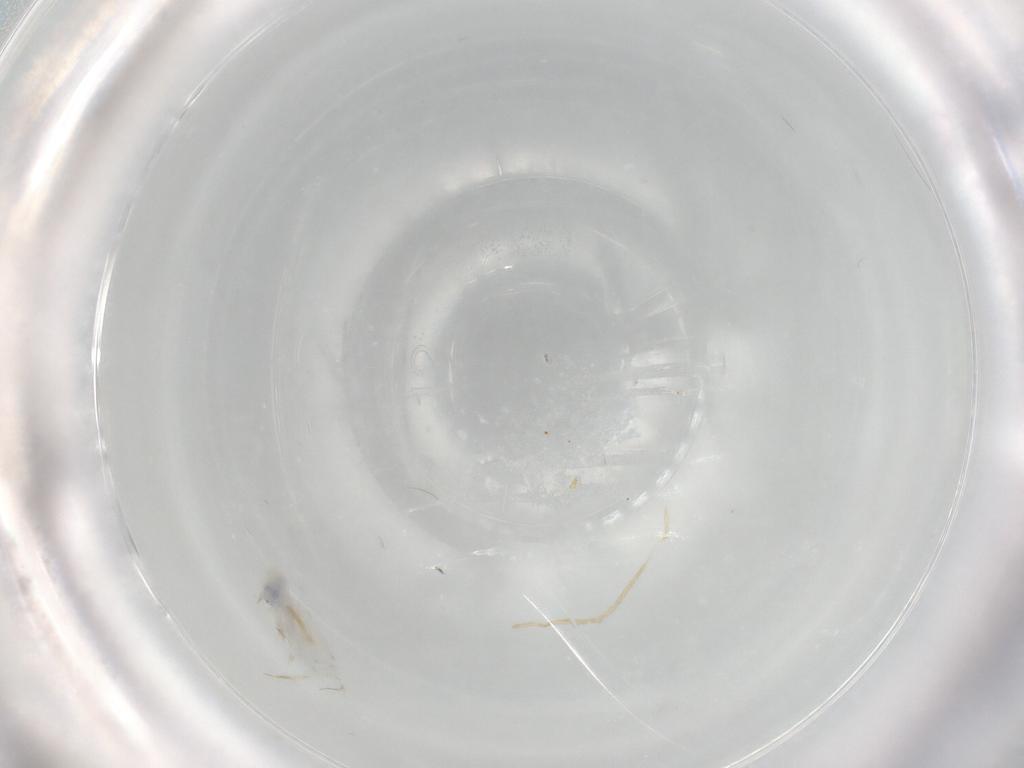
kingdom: Animalia
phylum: Arthropoda
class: Collembola
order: Entomobryomorpha
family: Entomobryidae
